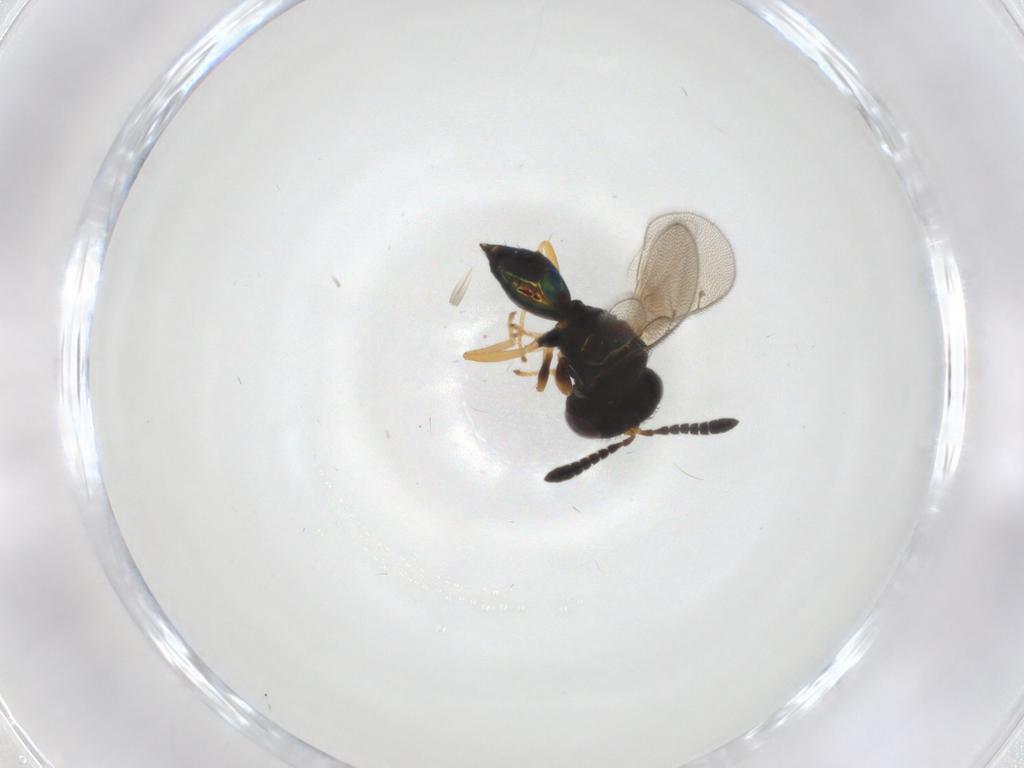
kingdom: Animalia
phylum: Arthropoda
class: Insecta
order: Hymenoptera
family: Pteromalidae
